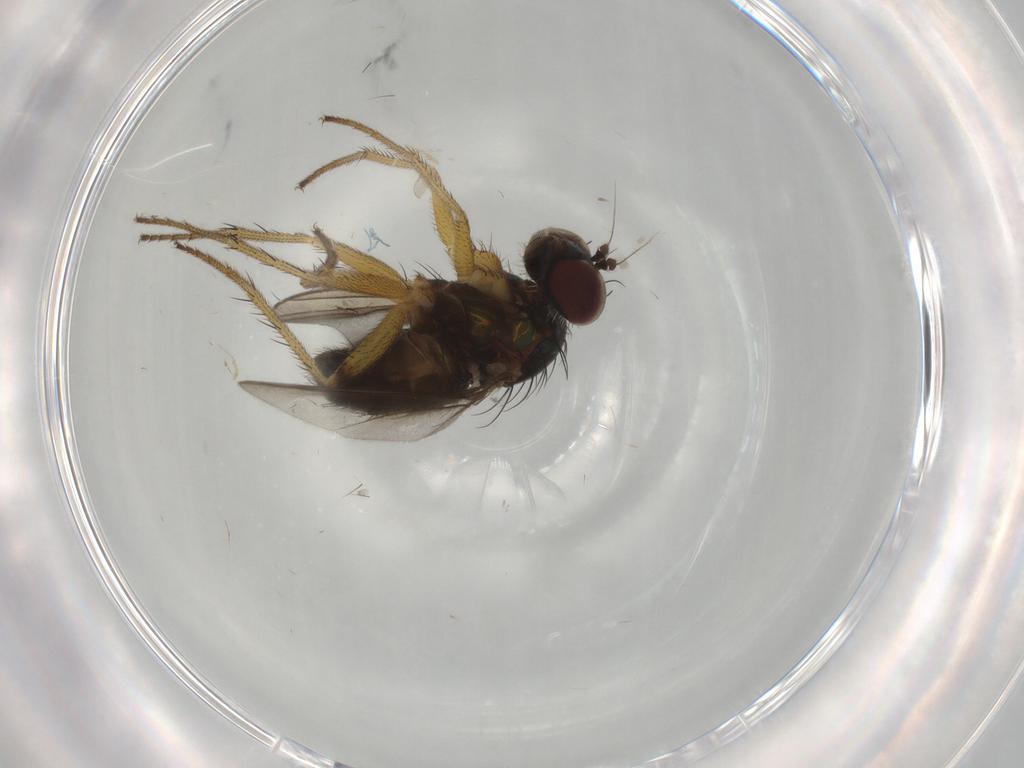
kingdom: Animalia
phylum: Arthropoda
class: Insecta
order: Diptera
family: Dolichopodidae
